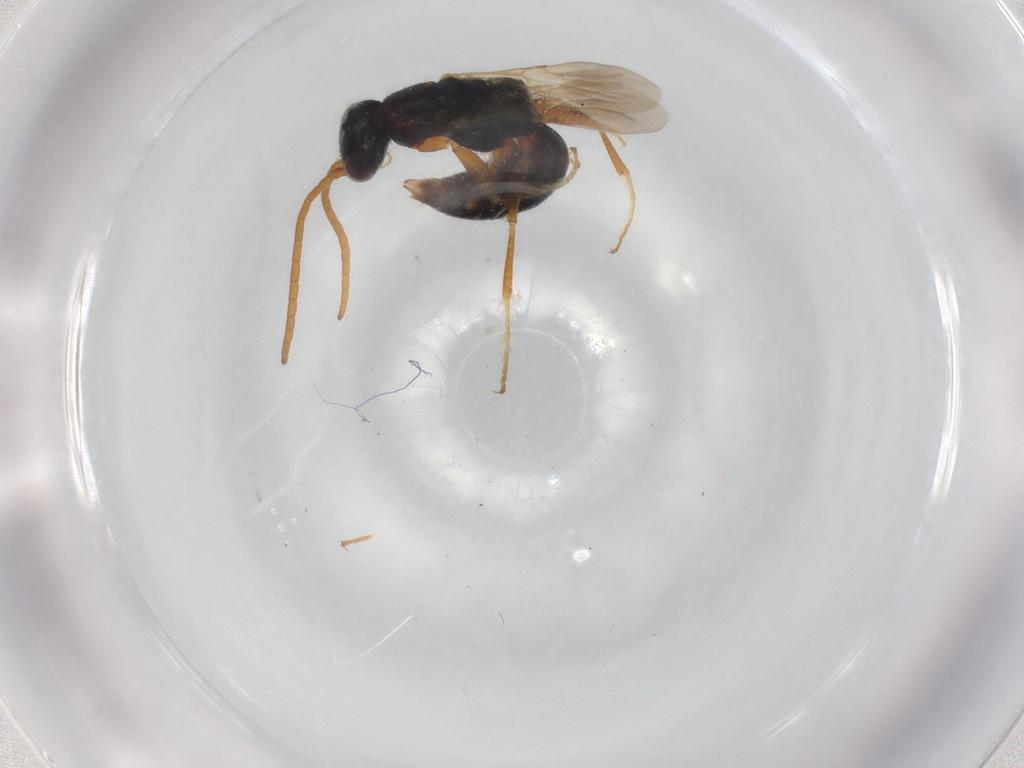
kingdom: Animalia
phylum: Arthropoda
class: Insecta
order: Hymenoptera
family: Bethylidae
